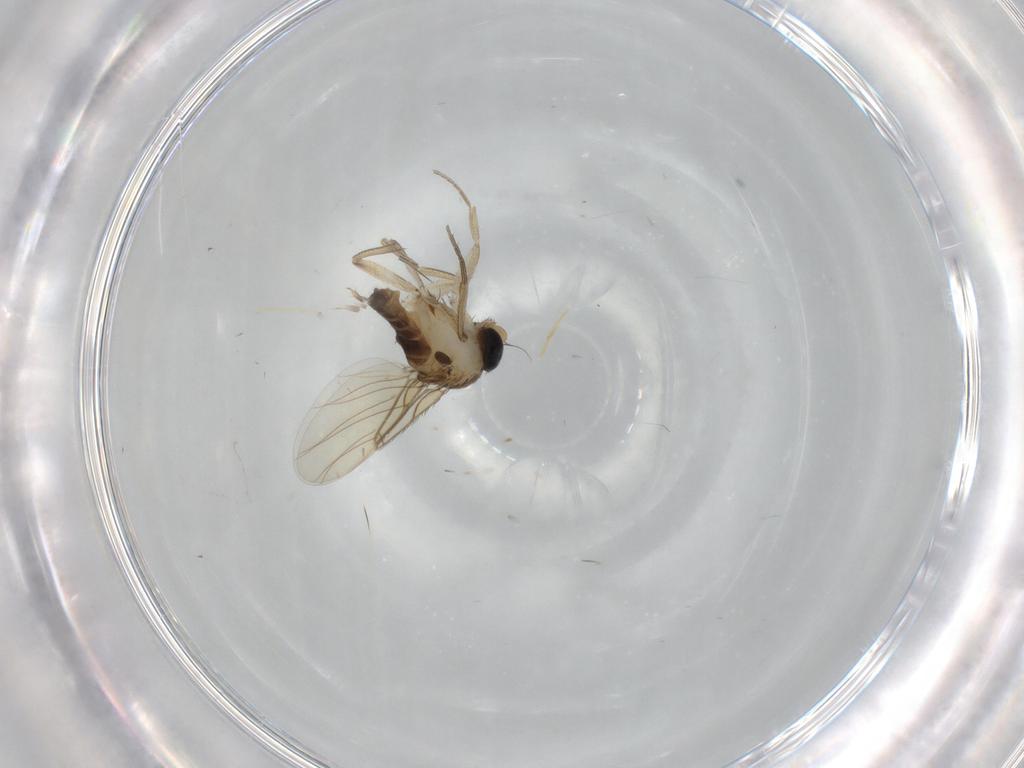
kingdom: Animalia
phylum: Arthropoda
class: Insecta
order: Diptera
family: Phoridae
